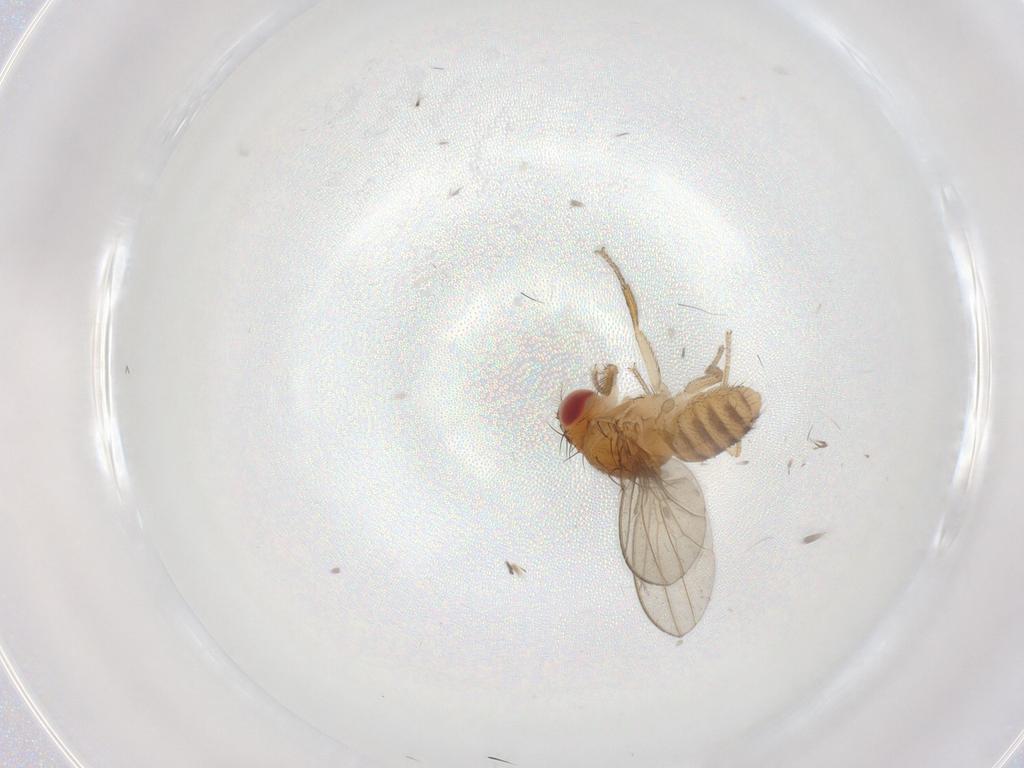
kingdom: Animalia
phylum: Arthropoda
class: Insecta
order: Diptera
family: Drosophilidae
